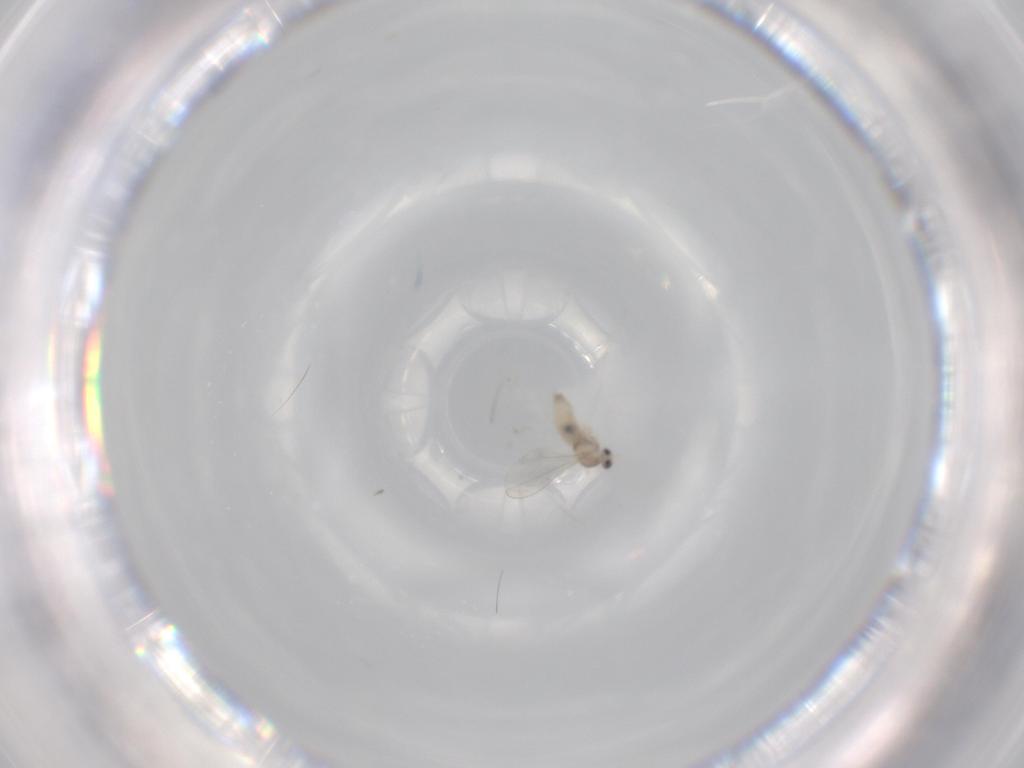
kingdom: Animalia
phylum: Arthropoda
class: Insecta
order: Diptera
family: Cecidomyiidae
